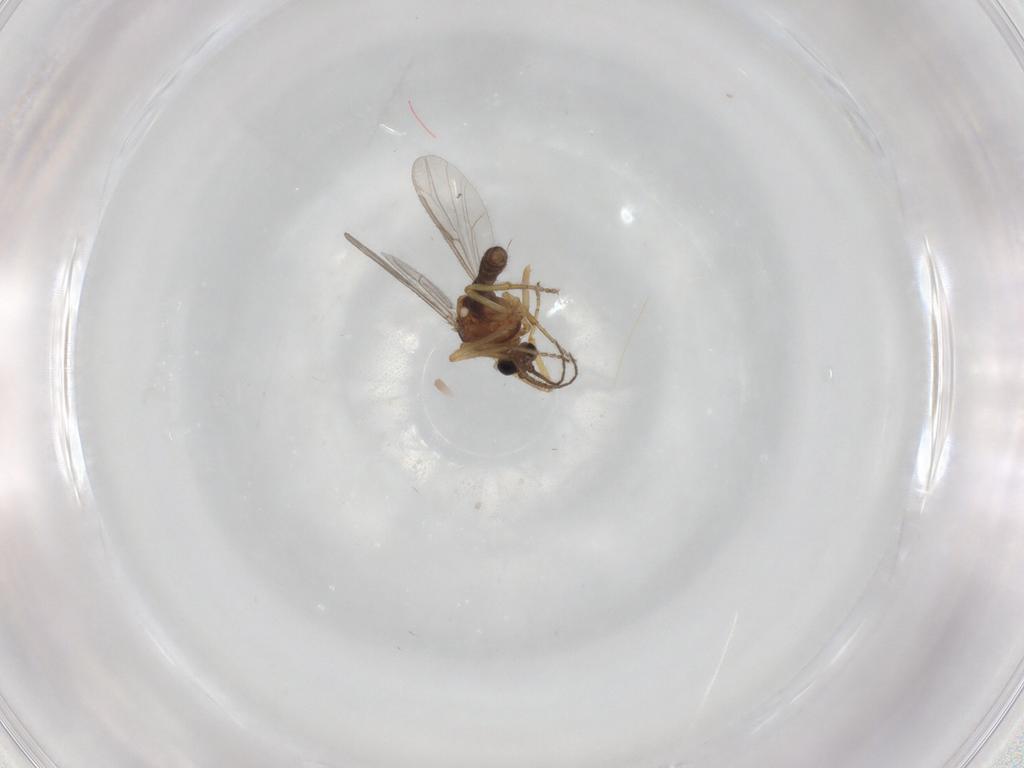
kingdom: Animalia
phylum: Arthropoda
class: Insecta
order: Diptera
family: Ceratopogonidae
